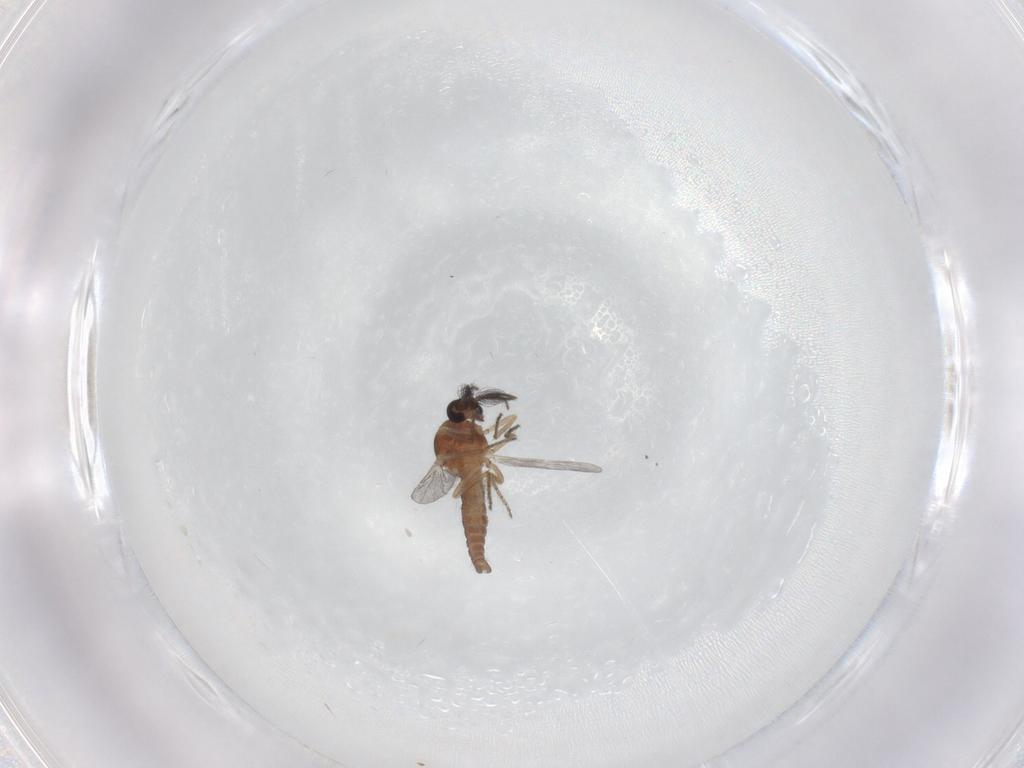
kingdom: Animalia
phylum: Arthropoda
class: Insecta
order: Diptera
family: Ceratopogonidae
